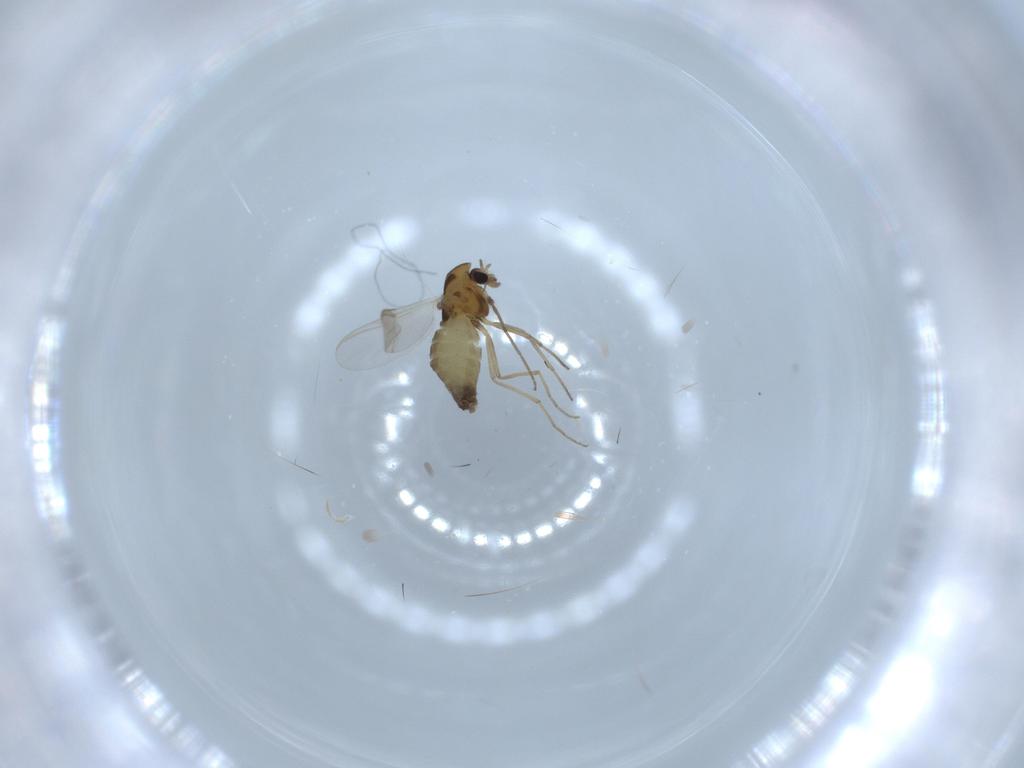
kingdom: Animalia
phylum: Arthropoda
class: Insecta
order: Diptera
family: Chironomidae
